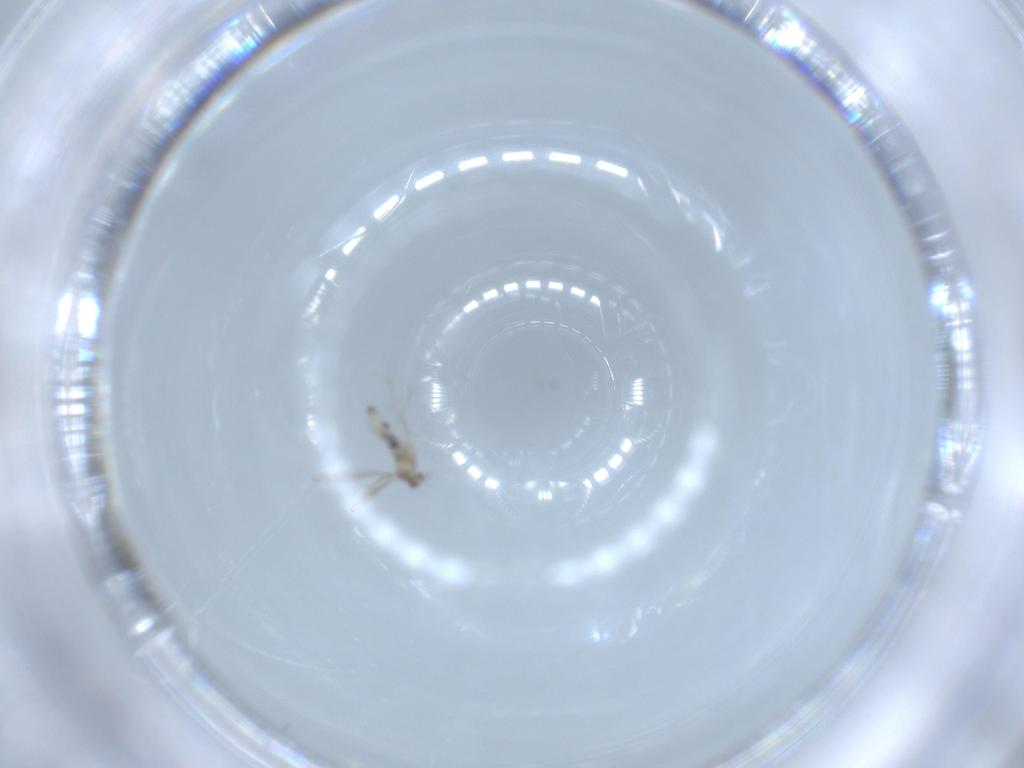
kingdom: Animalia
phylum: Arthropoda
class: Insecta
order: Diptera
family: Cecidomyiidae
